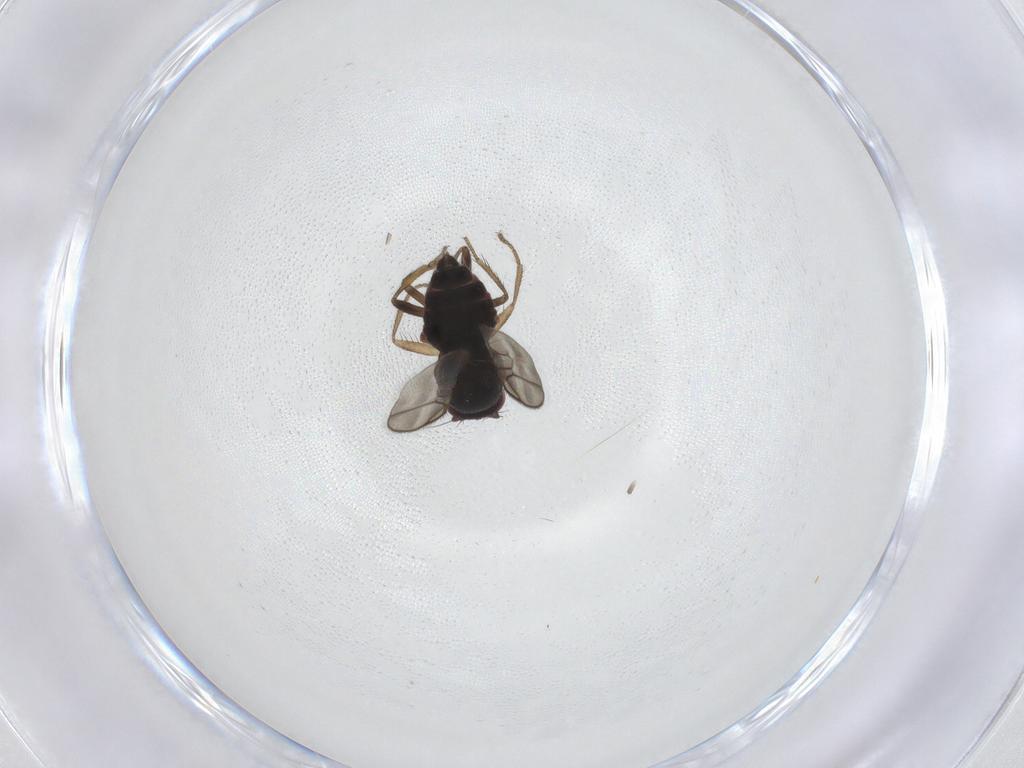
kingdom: Animalia
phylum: Arthropoda
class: Insecta
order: Diptera
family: Sphaeroceridae
